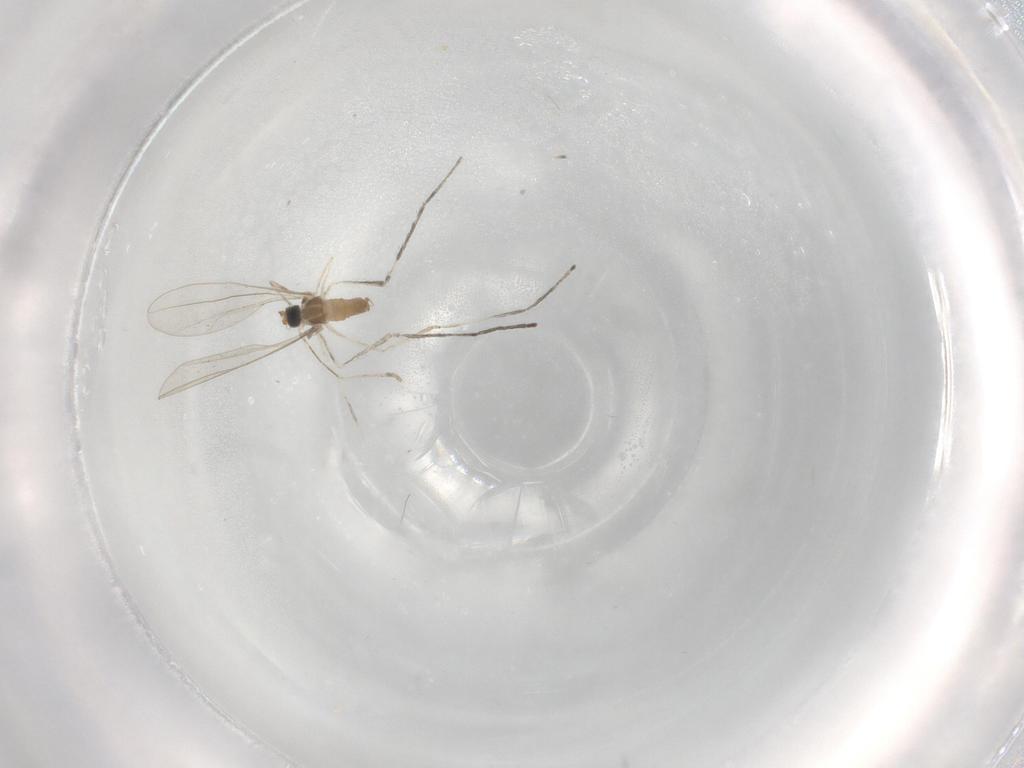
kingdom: Animalia
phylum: Arthropoda
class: Insecta
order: Diptera
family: Cecidomyiidae
